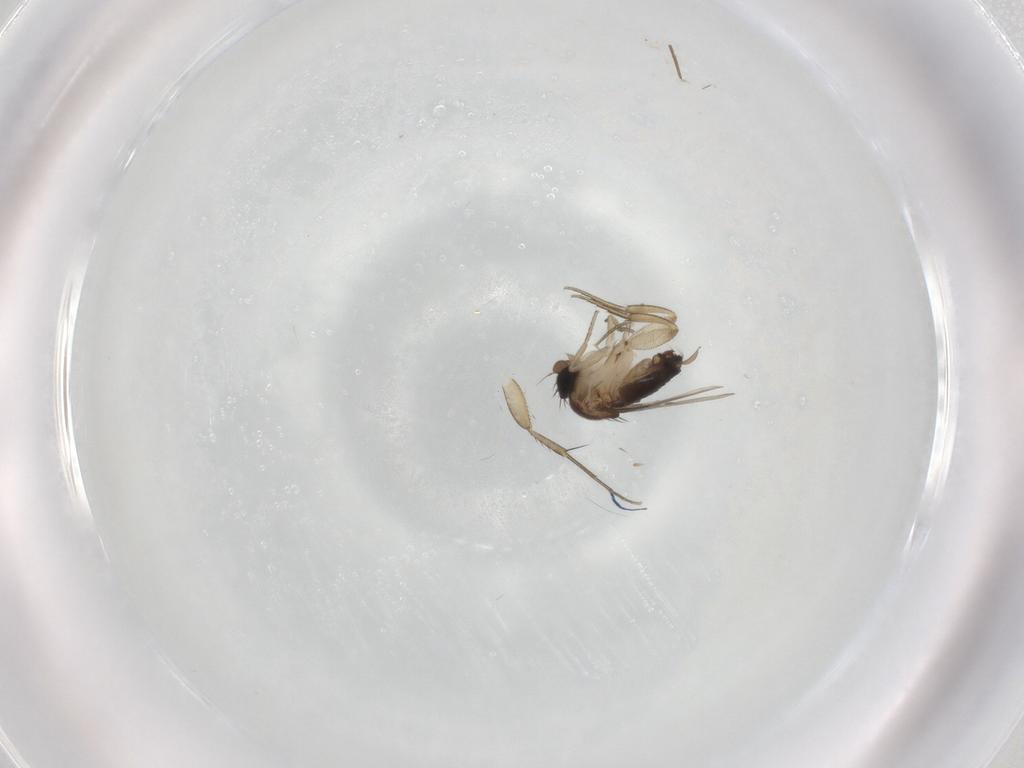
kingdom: Animalia
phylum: Arthropoda
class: Insecta
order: Diptera
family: Phoridae
